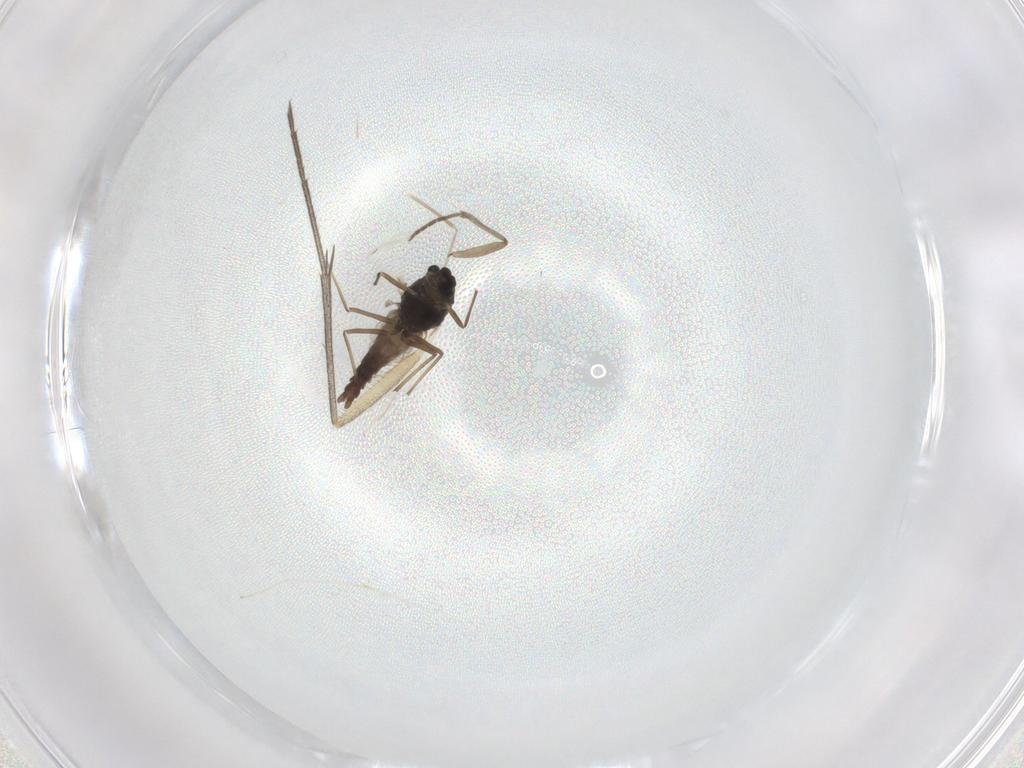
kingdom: Animalia
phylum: Arthropoda
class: Insecta
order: Diptera
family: Chironomidae
